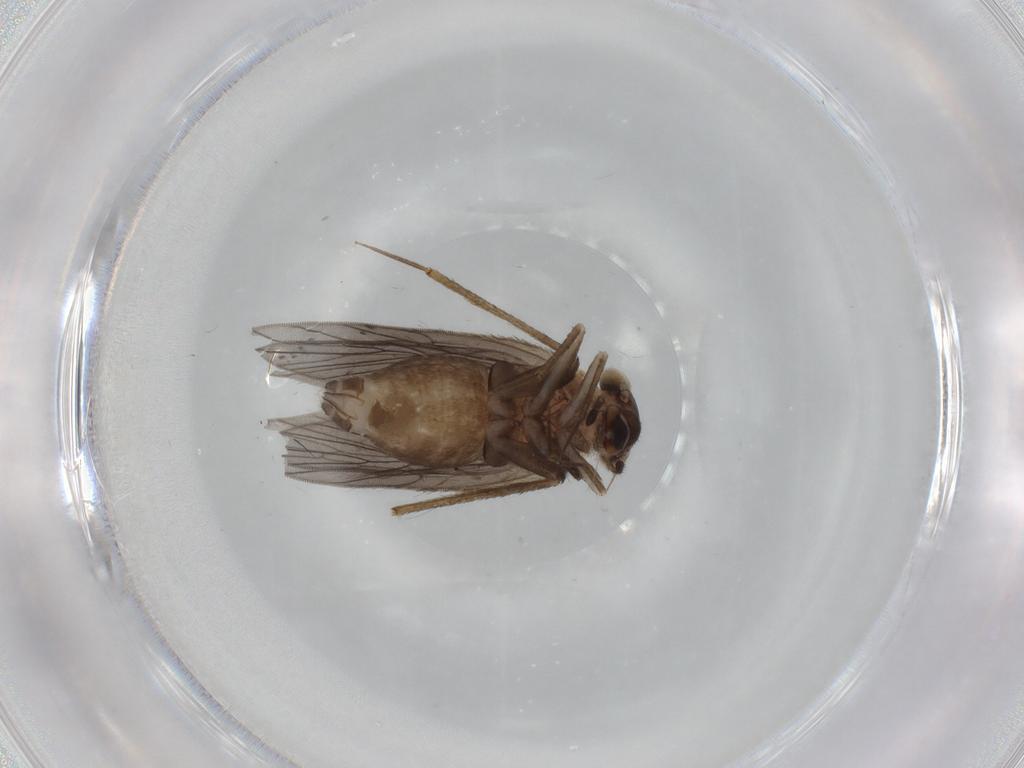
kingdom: Animalia
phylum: Arthropoda
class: Insecta
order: Psocodea
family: Lepidopsocidae
